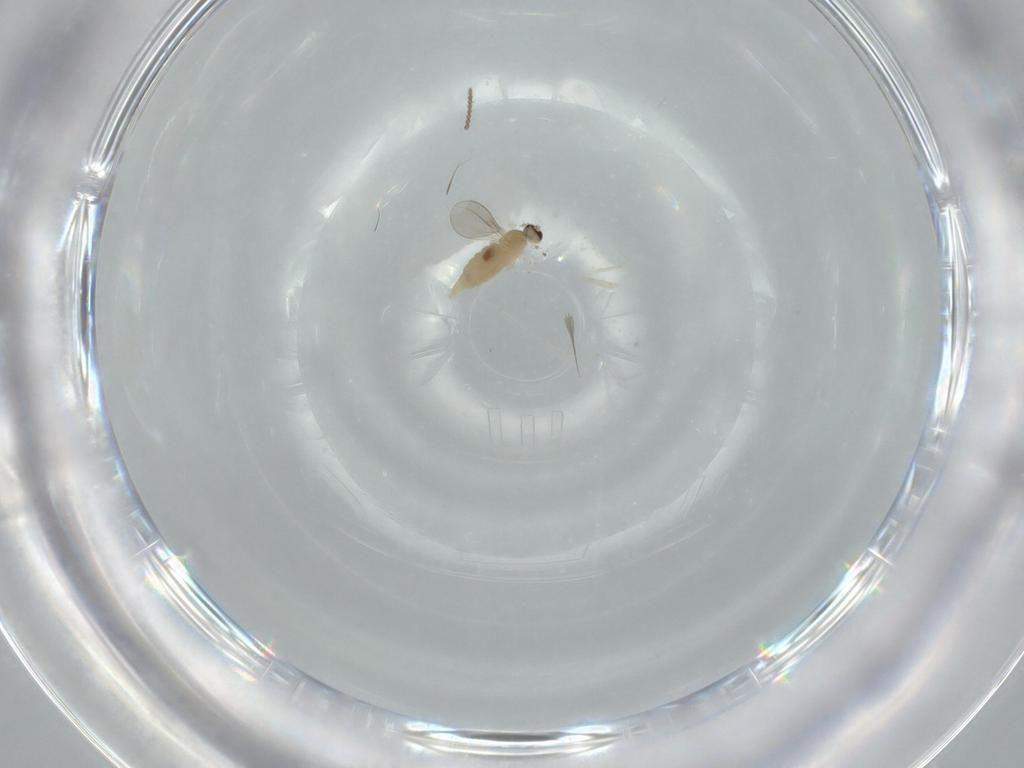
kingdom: Animalia
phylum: Arthropoda
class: Insecta
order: Diptera
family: Cecidomyiidae
